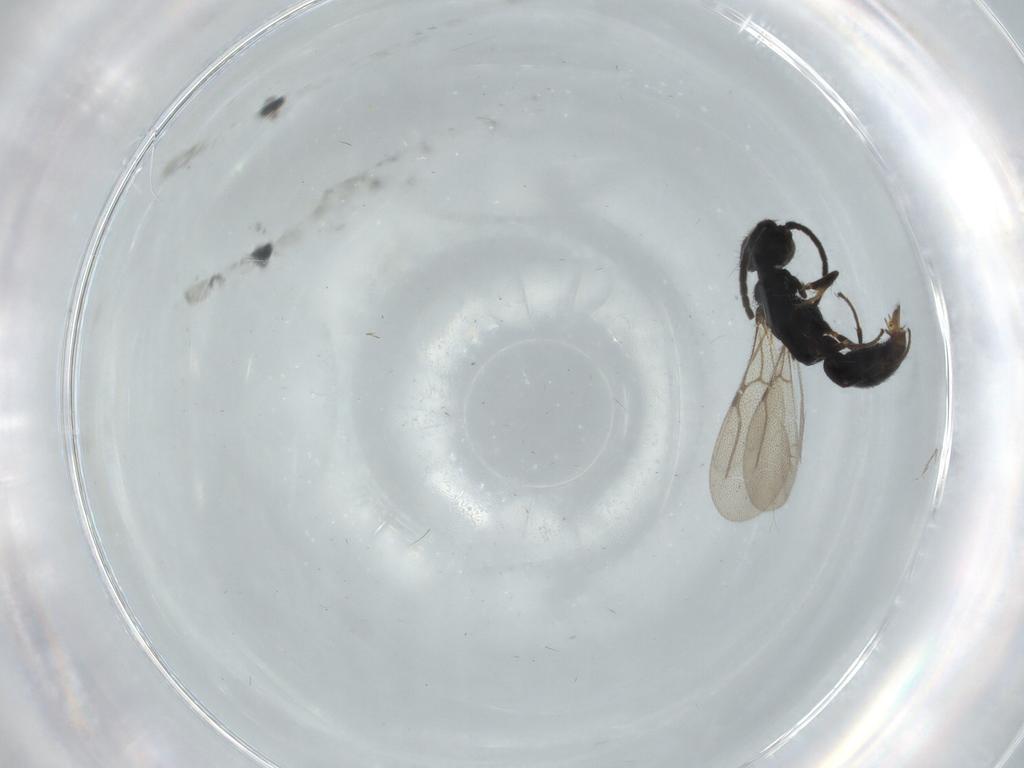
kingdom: Animalia
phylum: Arthropoda
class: Insecta
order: Hymenoptera
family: Bethylidae
